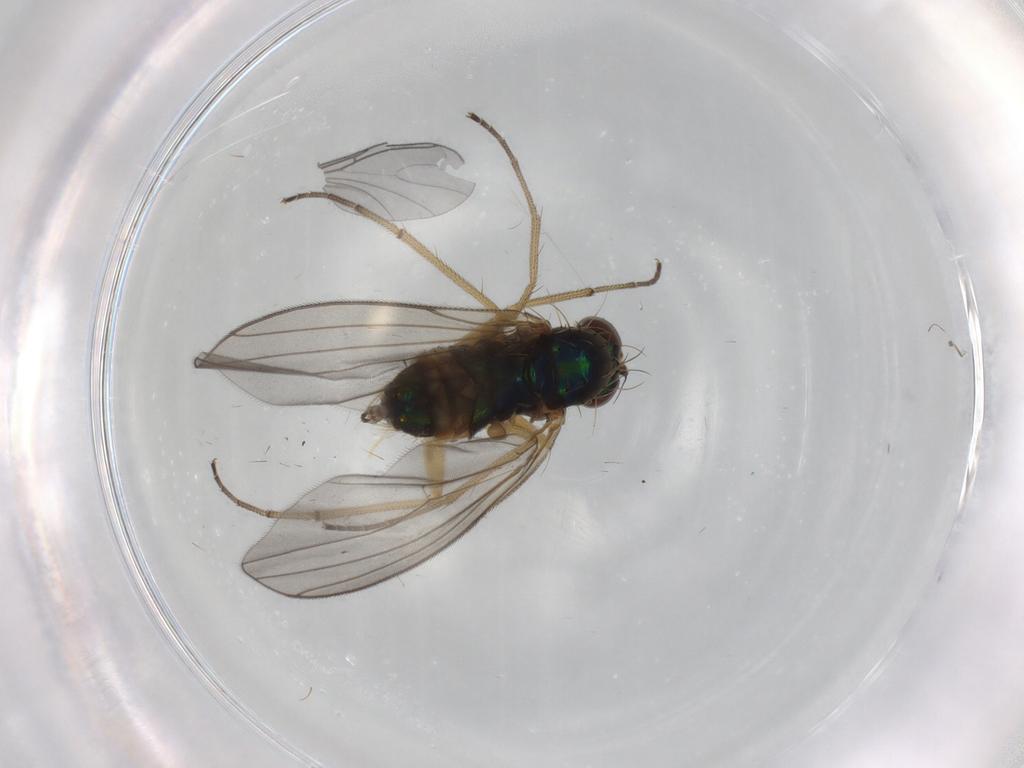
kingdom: Animalia
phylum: Arthropoda
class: Insecta
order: Diptera
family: Dolichopodidae
